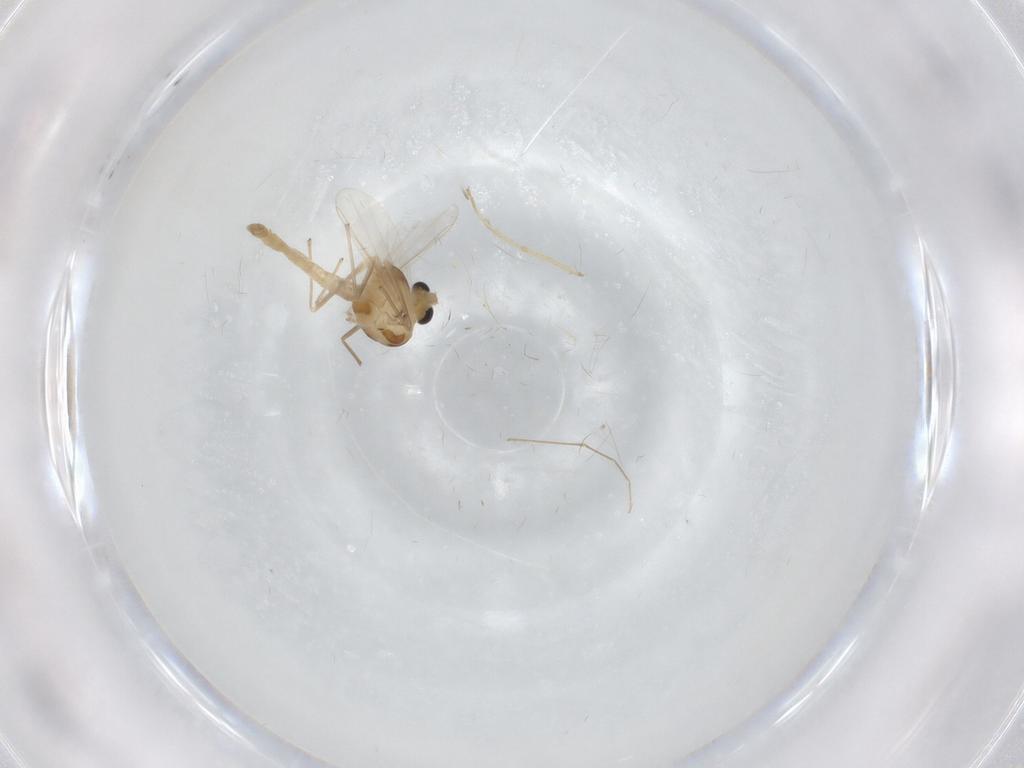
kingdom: Animalia
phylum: Arthropoda
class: Insecta
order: Diptera
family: Chironomidae
